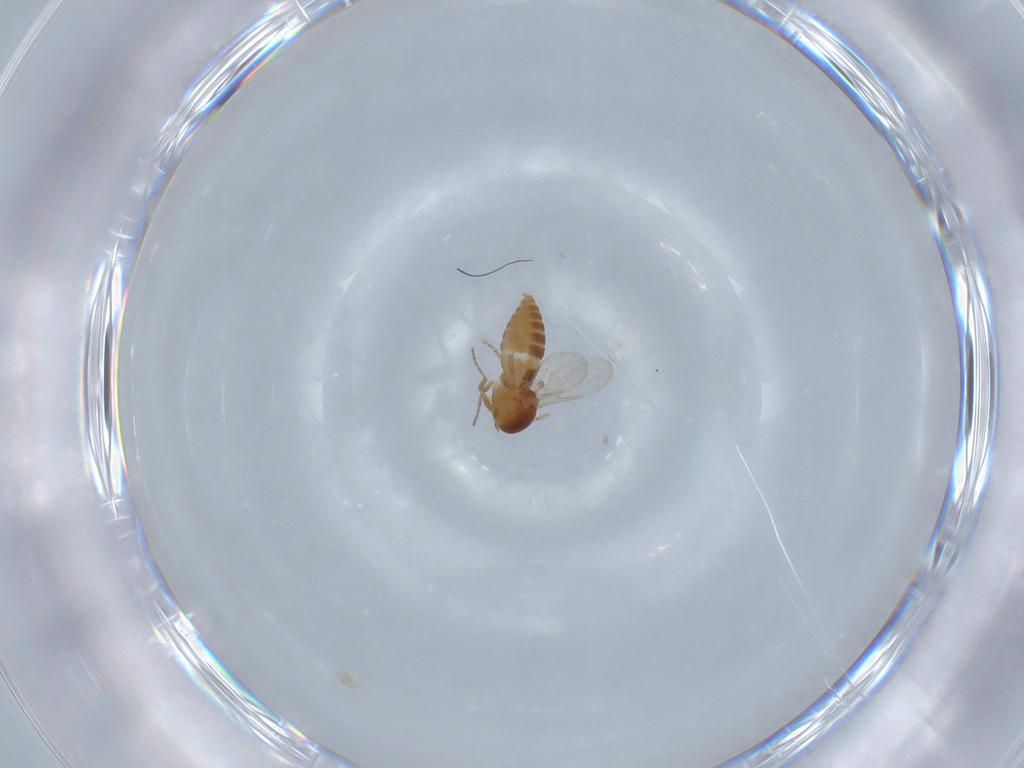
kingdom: Animalia
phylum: Arthropoda
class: Insecta
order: Diptera
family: Ceratopogonidae
